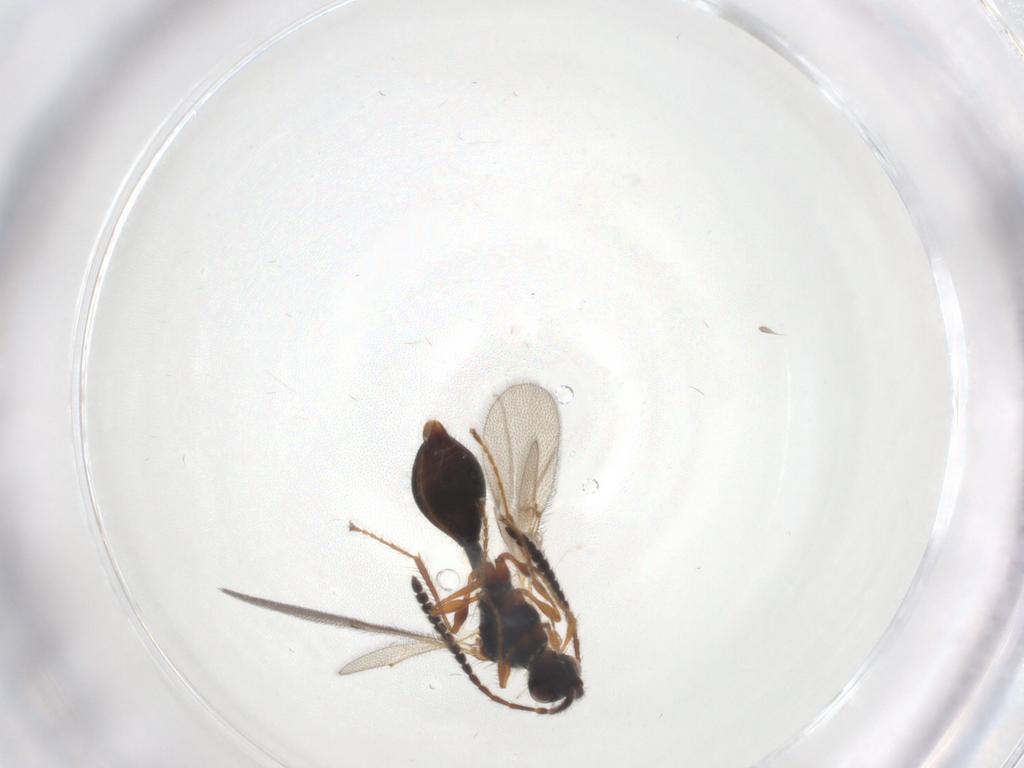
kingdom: Animalia
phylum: Arthropoda
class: Insecta
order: Hymenoptera
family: Diapriidae
